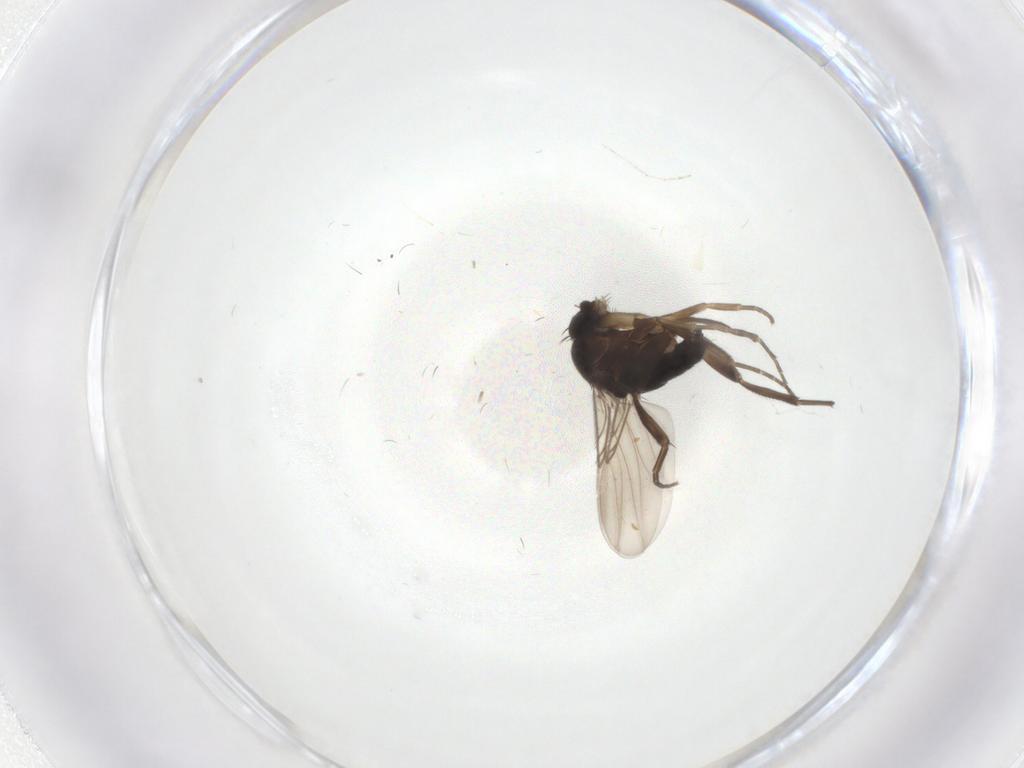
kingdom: Animalia
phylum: Arthropoda
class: Insecta
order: Diptera
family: Phoridae
